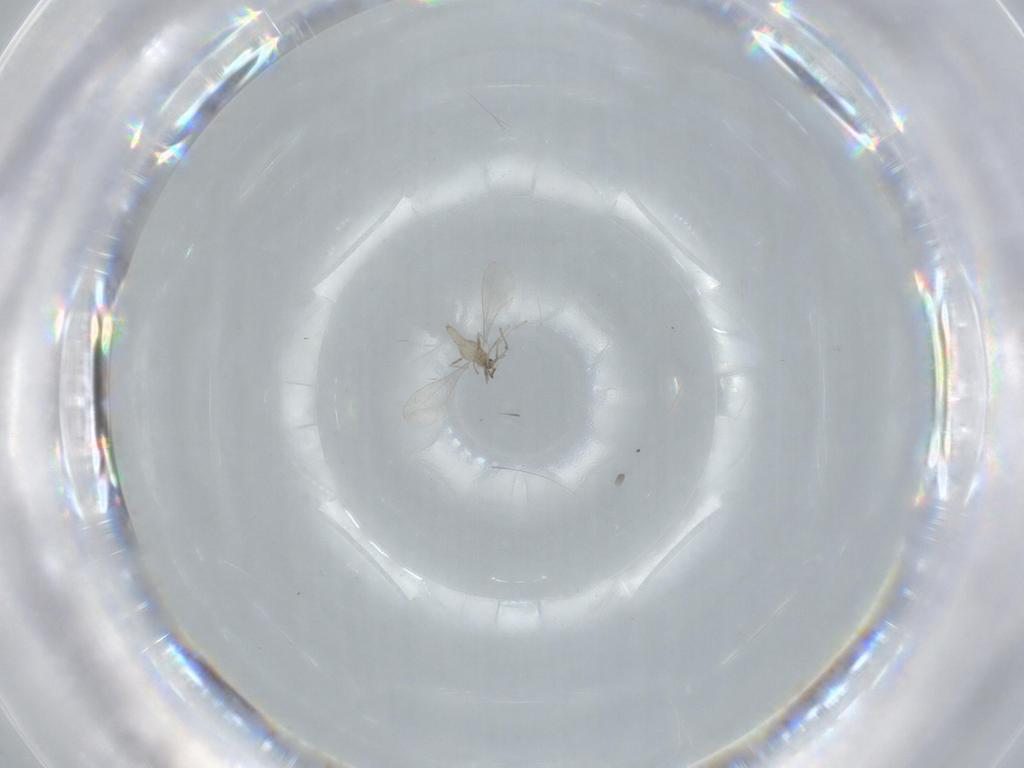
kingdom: Animalia
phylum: Arthropoda
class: Insecta
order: Diptera
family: Cecidomyiidae
